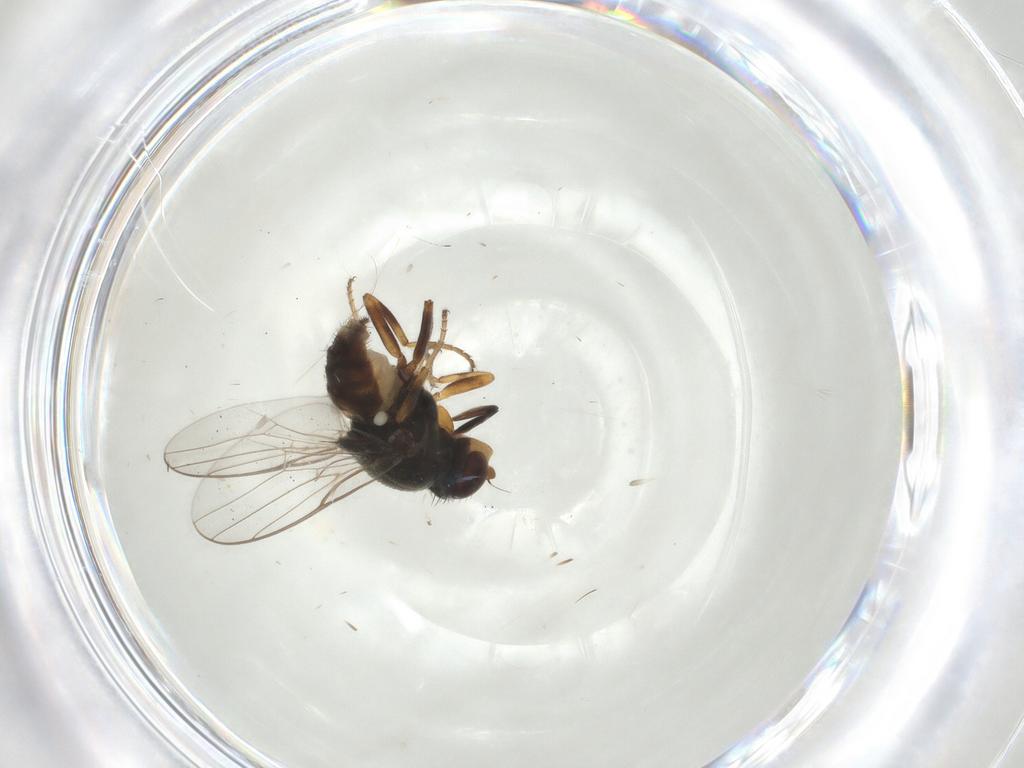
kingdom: Animalia
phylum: Arthropoda
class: Insecta
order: Diptera
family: Chloropidae
